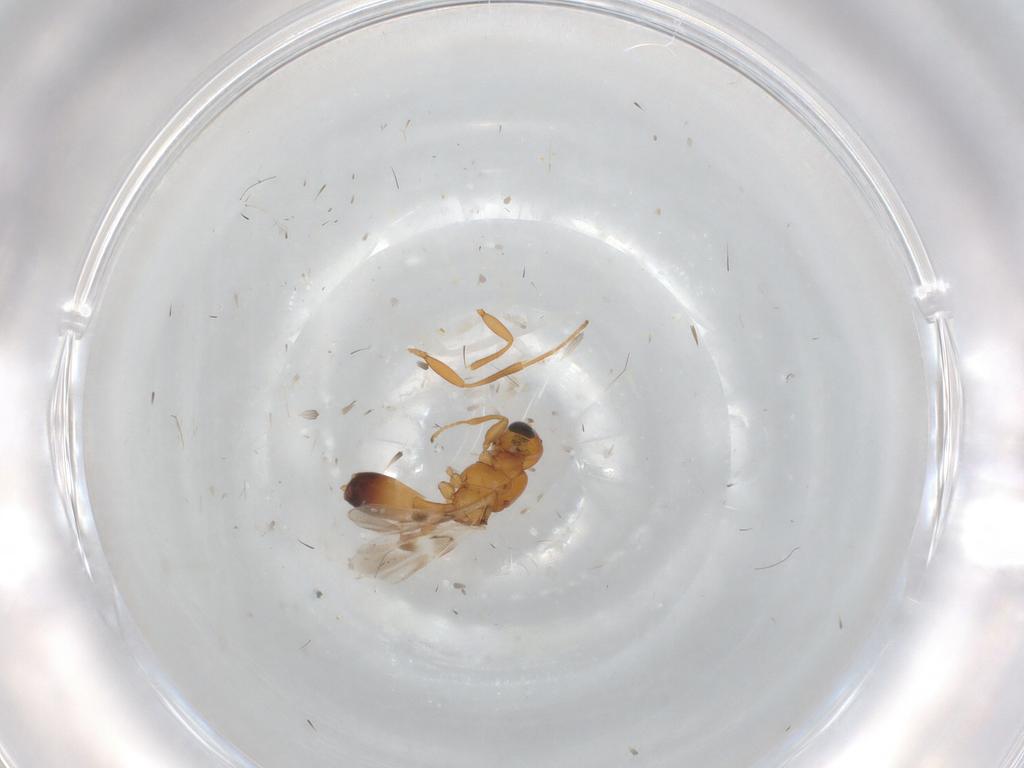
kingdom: Animalia
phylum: Arthropoda
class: Insecta
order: Hymenoptera
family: Braconidae
